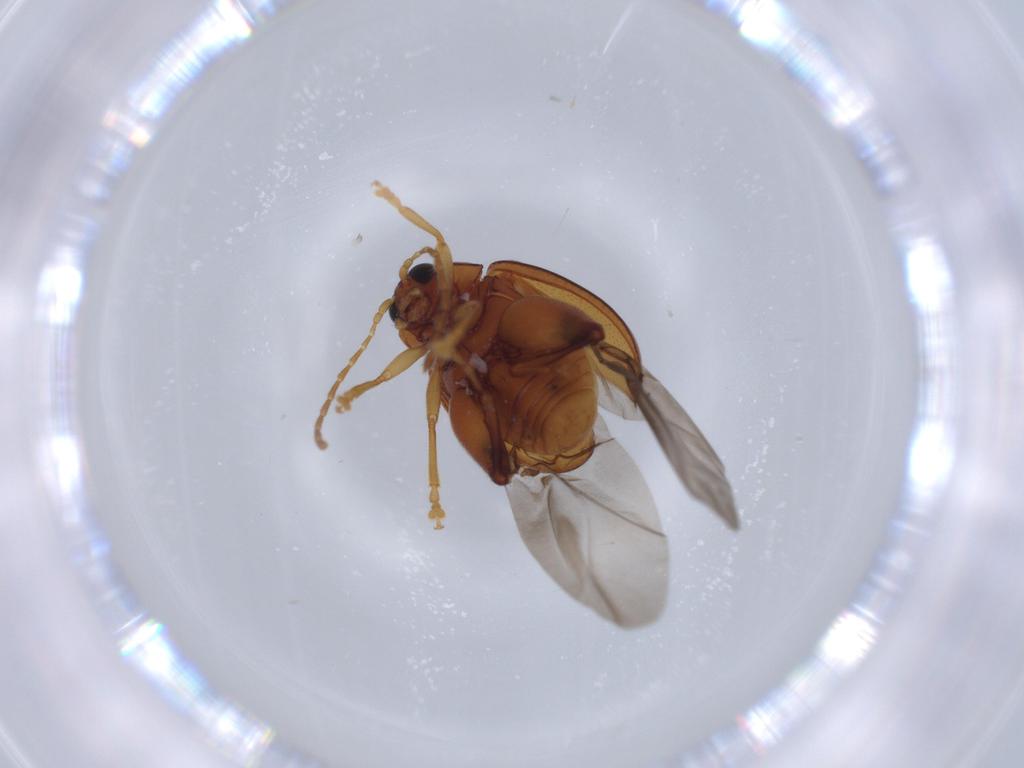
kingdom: Animalia
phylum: Arthropoda
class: Insecta
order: Coleoptera
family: Chrysomelidae
